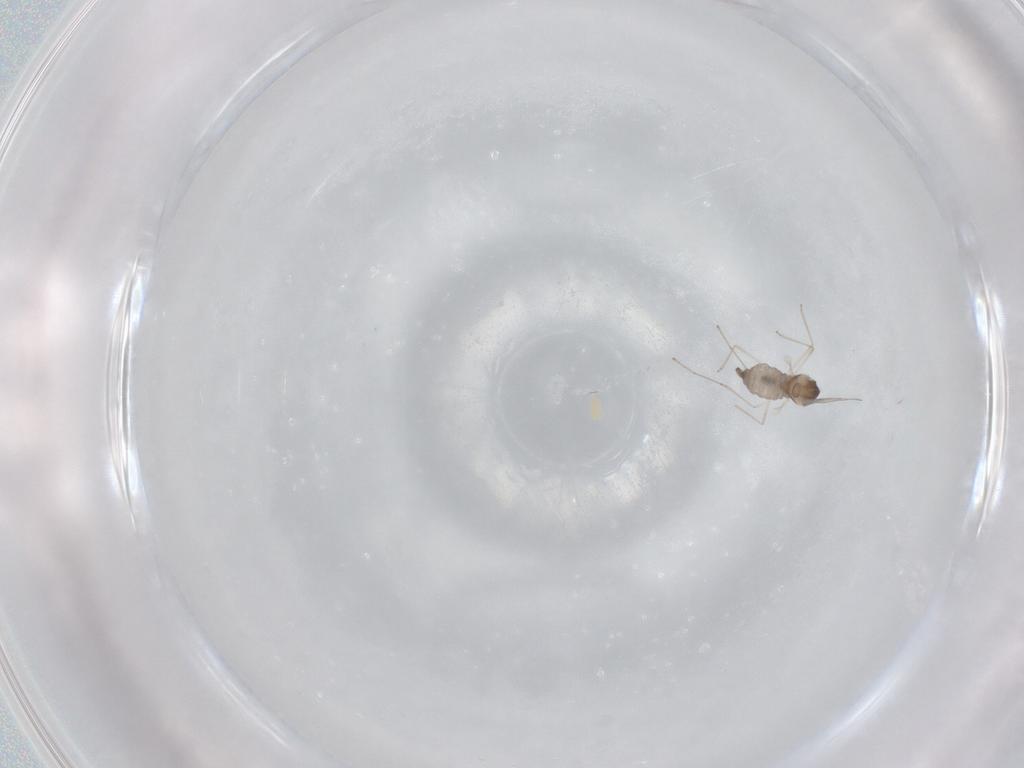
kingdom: Animalia
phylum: Arthropoda
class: Insecta
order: Diptera
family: Cecidomyiidae
